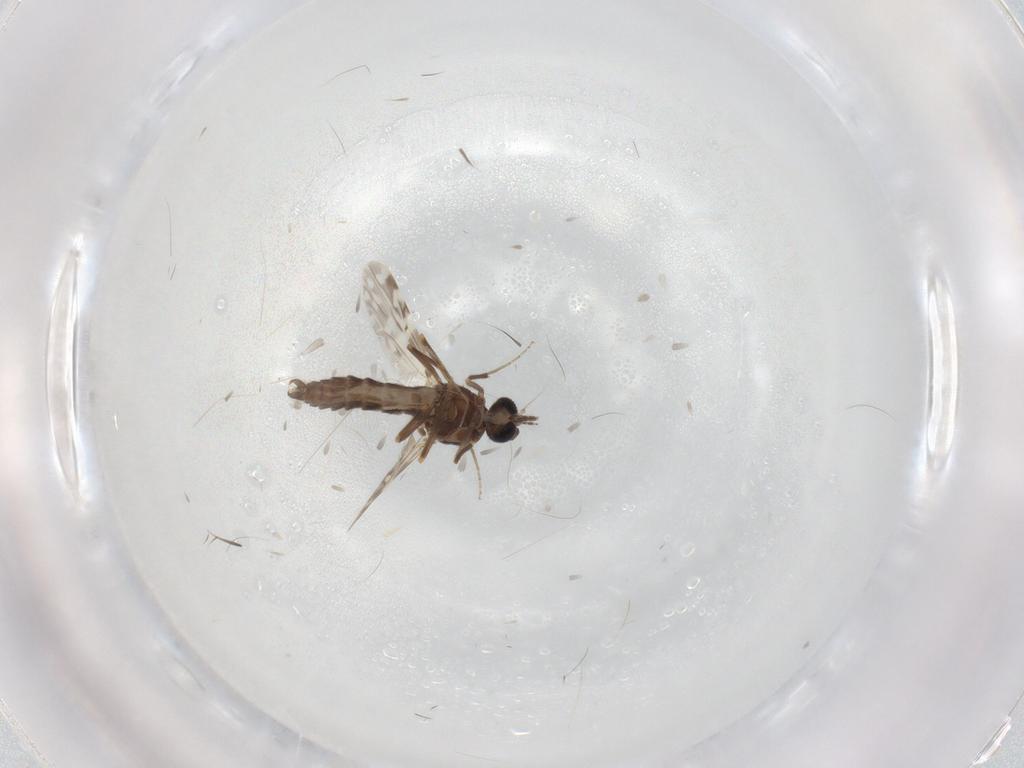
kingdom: Animalia
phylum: Arthropoda
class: Insecta
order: Diptera
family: Ceratopogonidae
